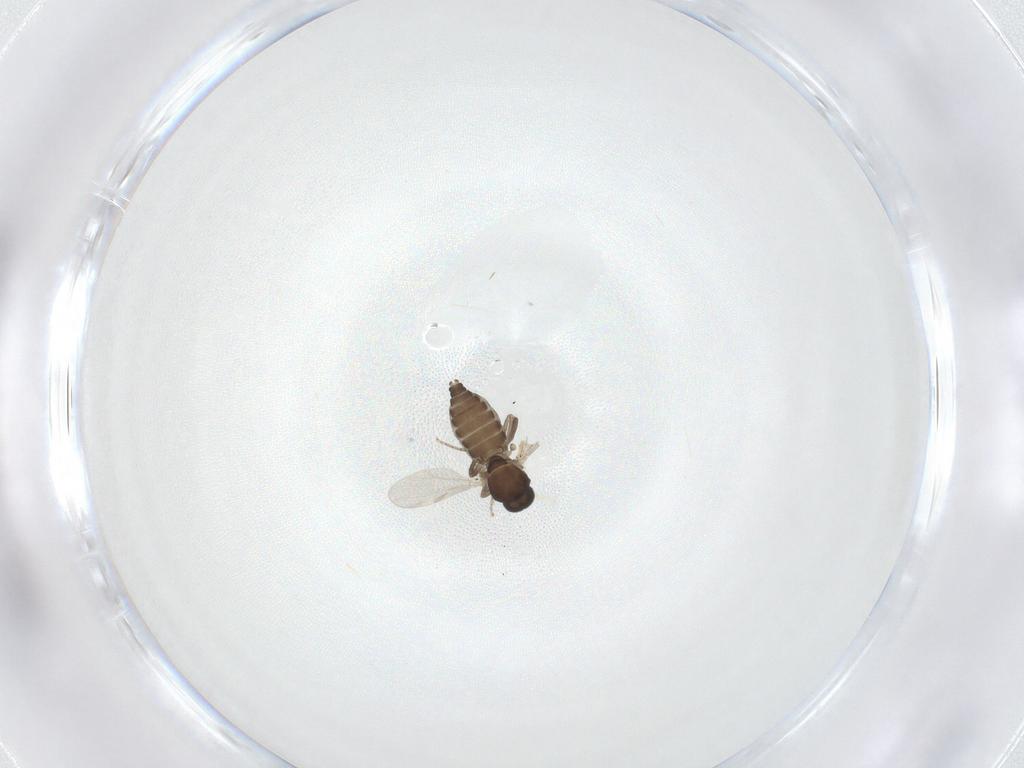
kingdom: Animalia
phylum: Arthropoda
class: Insecta
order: Diptera
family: Ceratopogonidae
